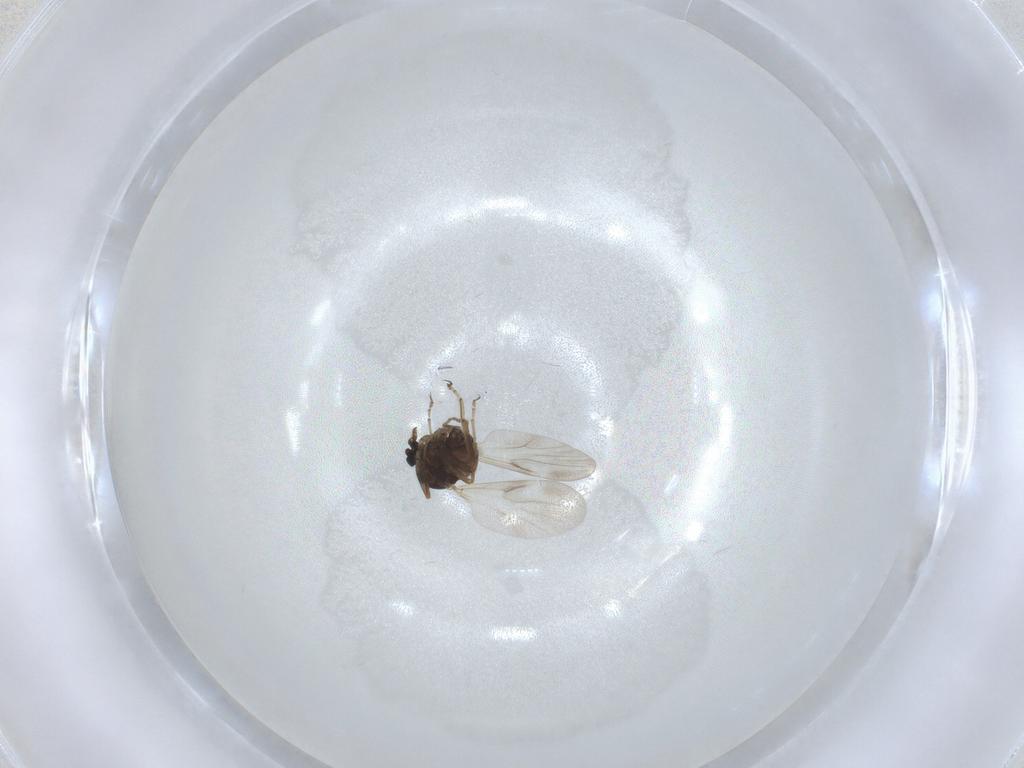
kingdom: Animalia
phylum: Arthropoda
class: Insecta
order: Diptera
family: Ceratopogonidae
